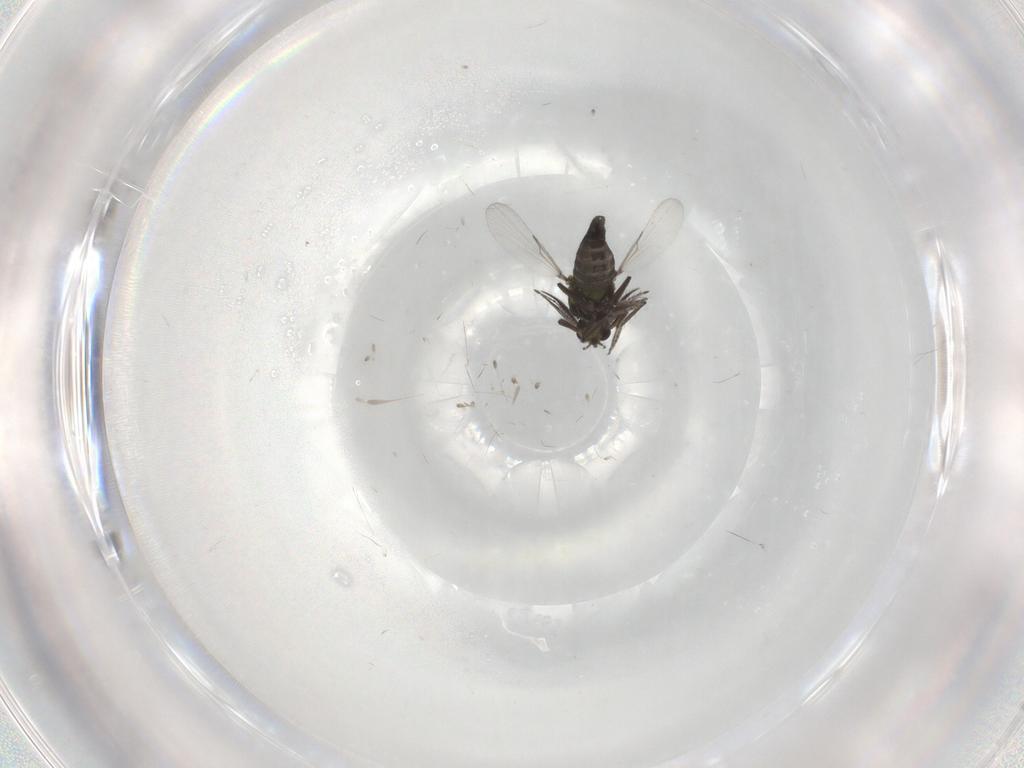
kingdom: Animalia
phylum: Arthropoda
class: Insecta
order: Diptera
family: Ceratopogonidae
